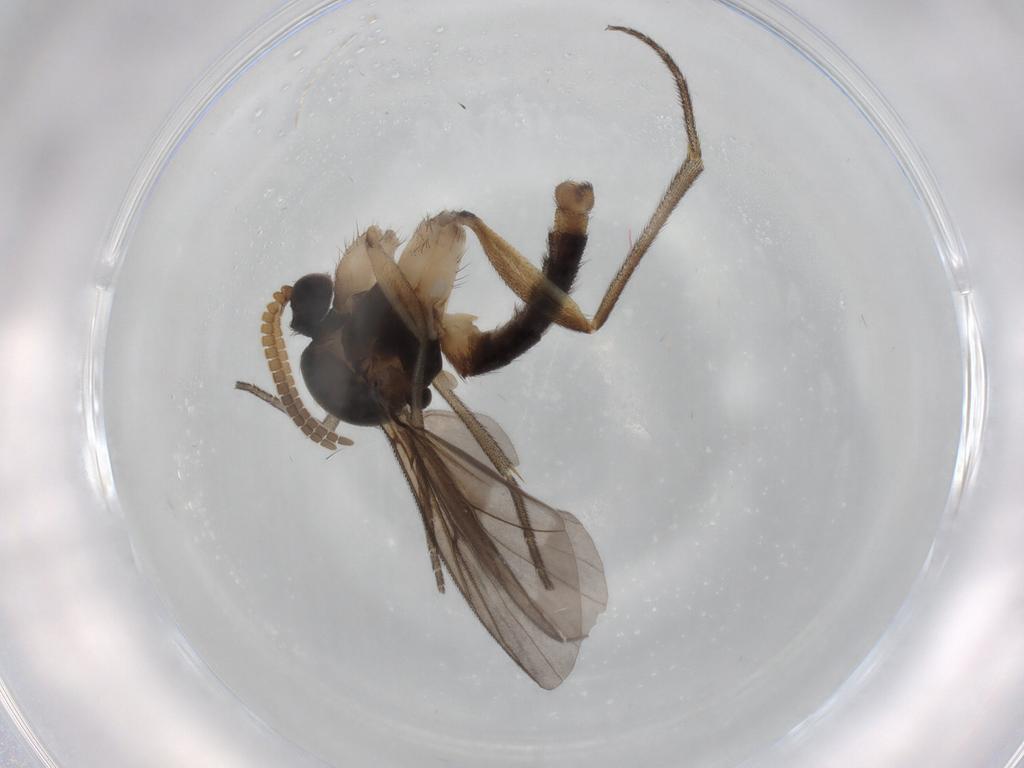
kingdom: Animalia
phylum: Arthropoda
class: Insecta
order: Diptera
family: Mycetophilidae
